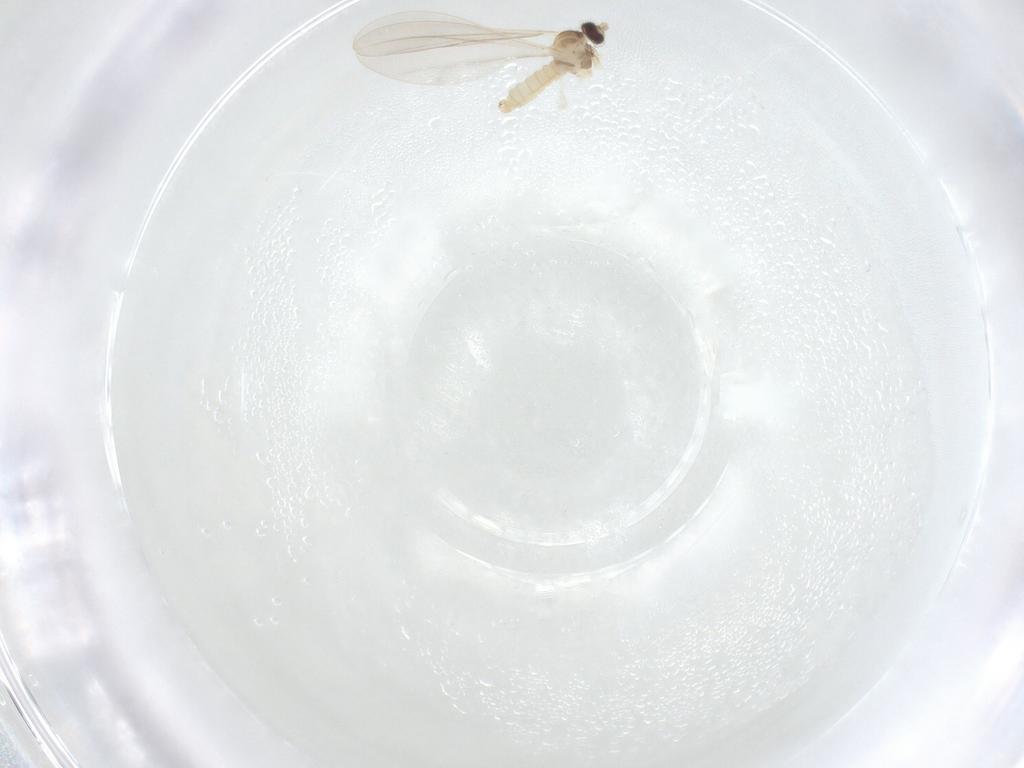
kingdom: Animalia
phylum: Arthropoda
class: Insecta
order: Diptera
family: Cecidomyiidae
